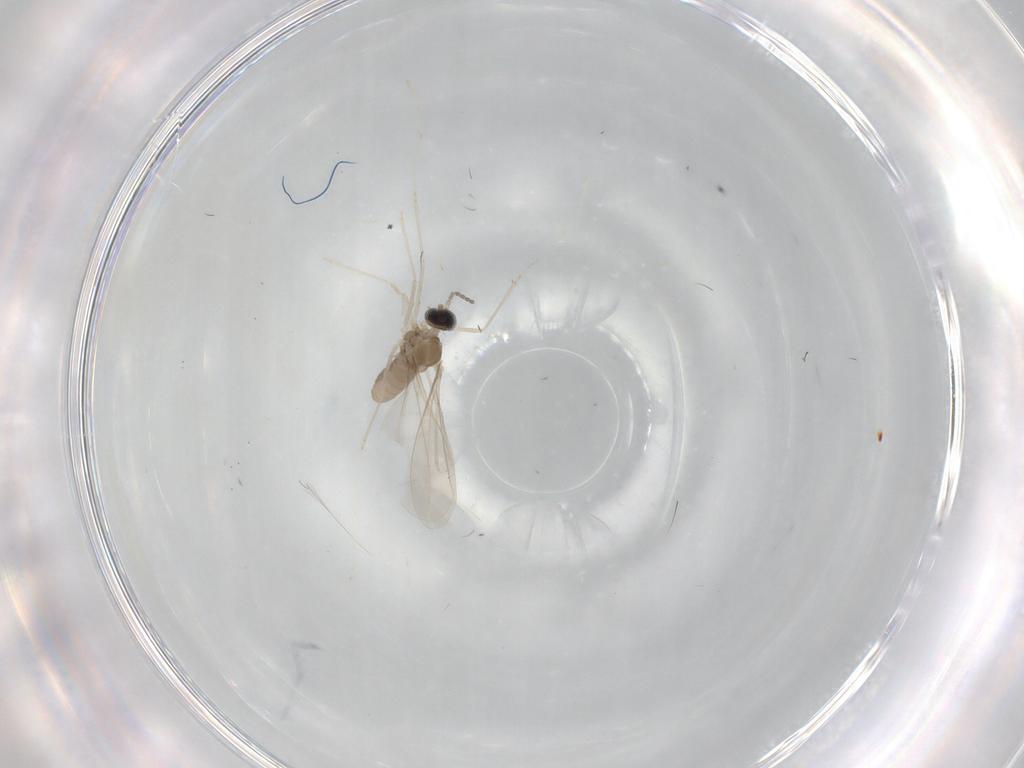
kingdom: Animalia
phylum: Arthropoda
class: Insecta
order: Diptera
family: Cecidomyiidae
